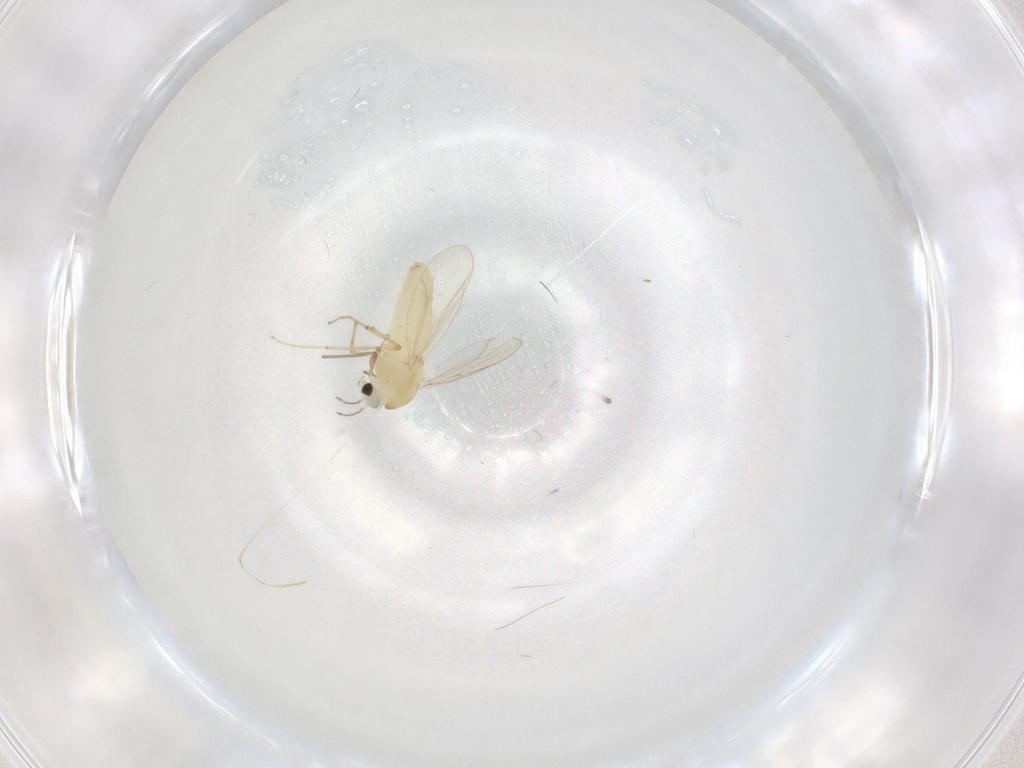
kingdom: Animalia
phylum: Arthropoda
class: Insecta
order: Diptera
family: Chironomidae
